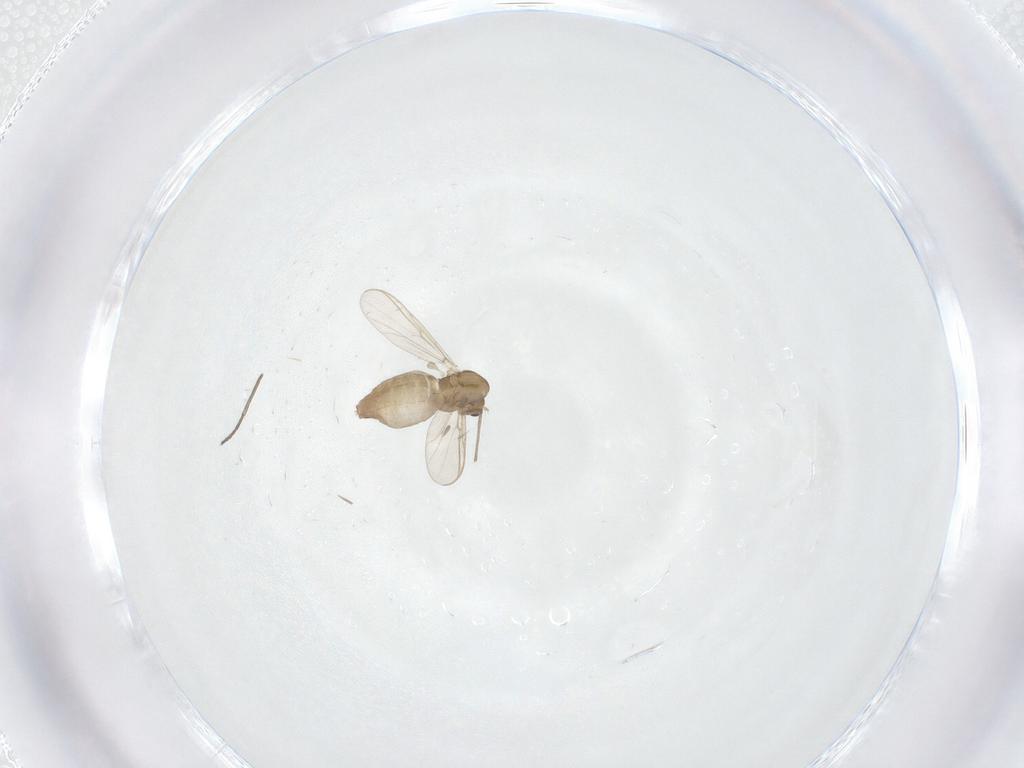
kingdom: Animalia
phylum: Arthropoda
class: Insecta
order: Diptera
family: Chironomidae
